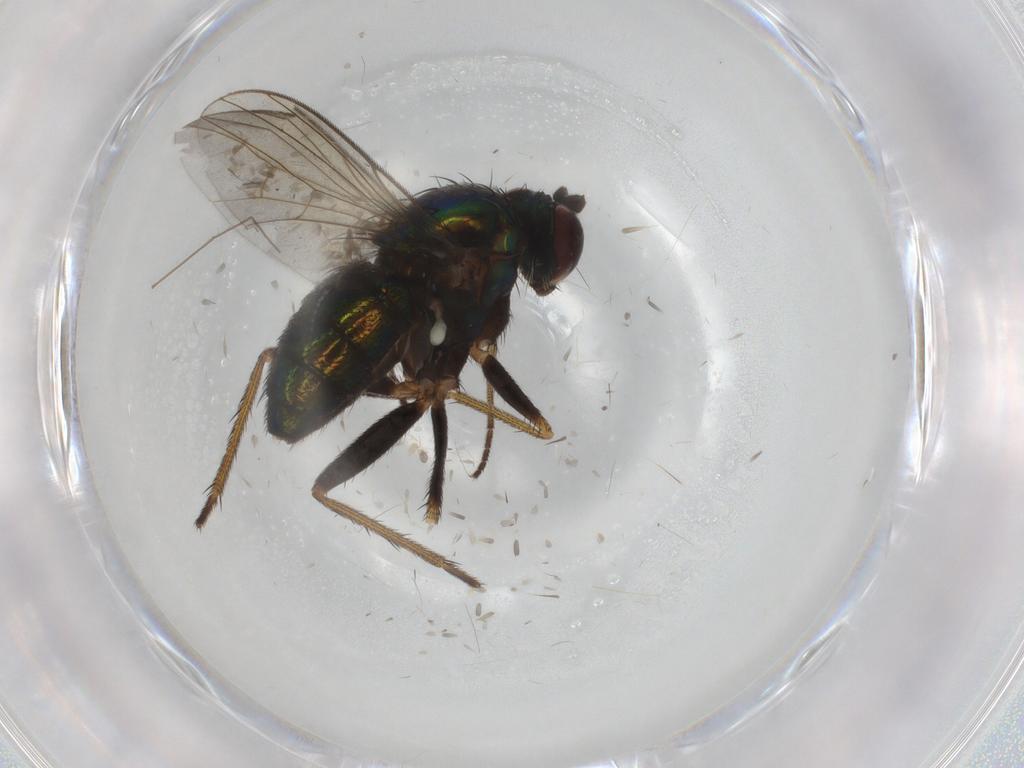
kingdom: Animalia
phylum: Arthropoda
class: Insecta
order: Diptera
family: Dolichopodidae
